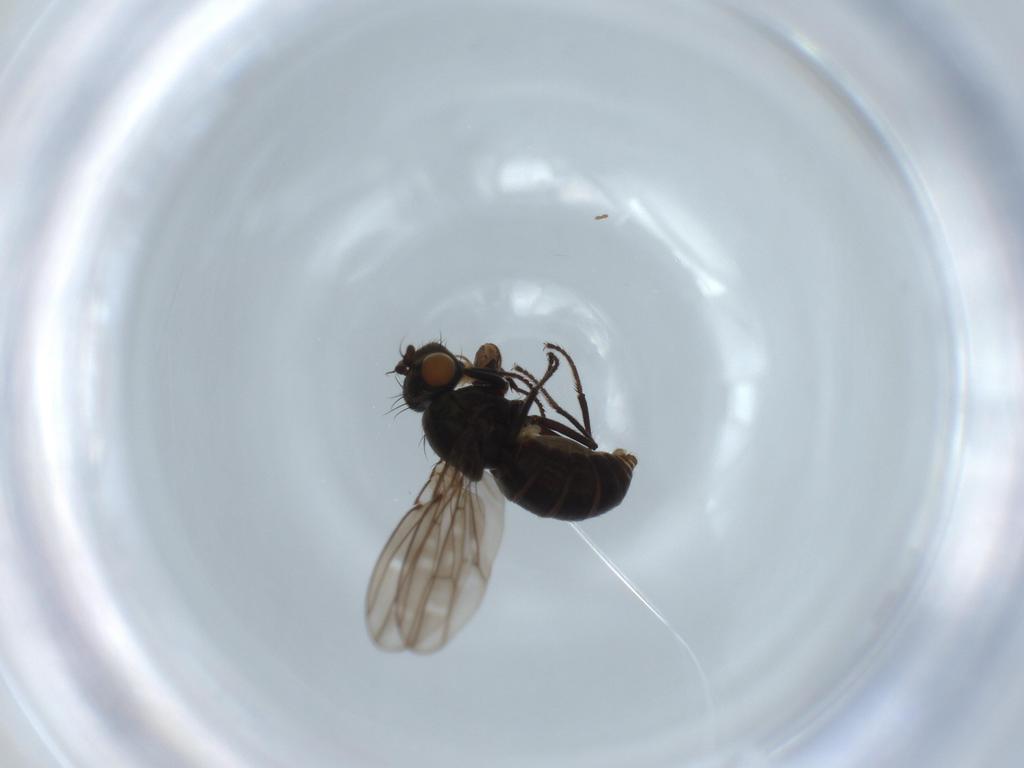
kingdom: Animalia
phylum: Arthropoda
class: Insecta
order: Diptera
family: Ephydridae
